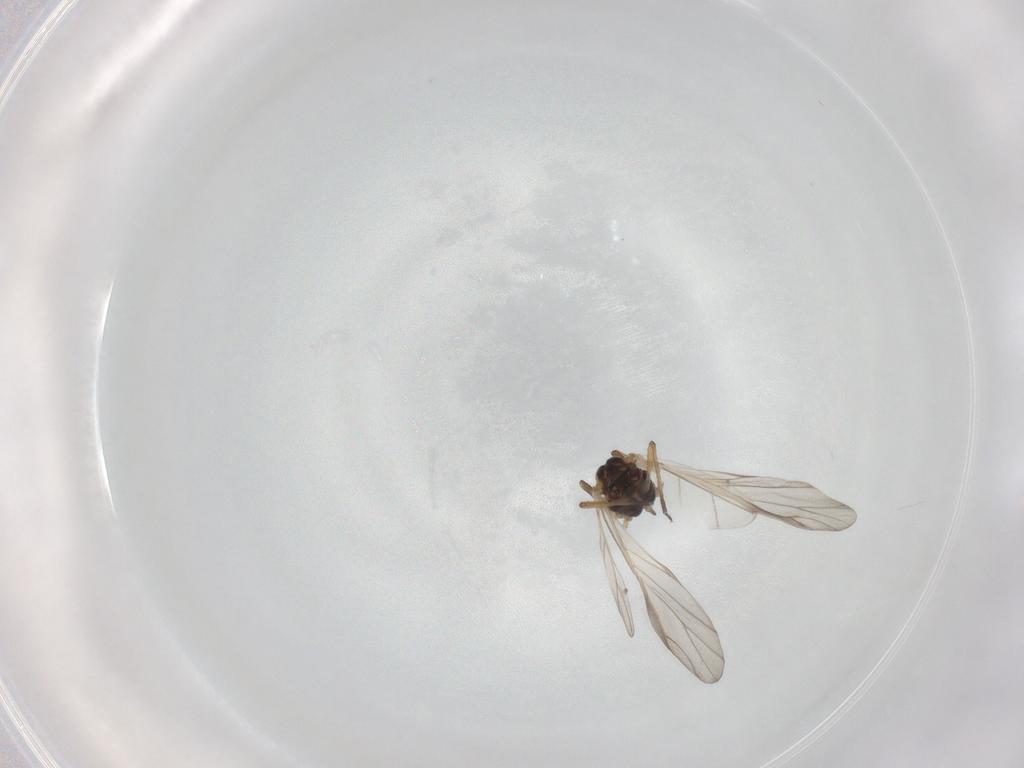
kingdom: Animalia
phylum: Arthropoda
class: Insecta
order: Hemiptera
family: Aphididae
